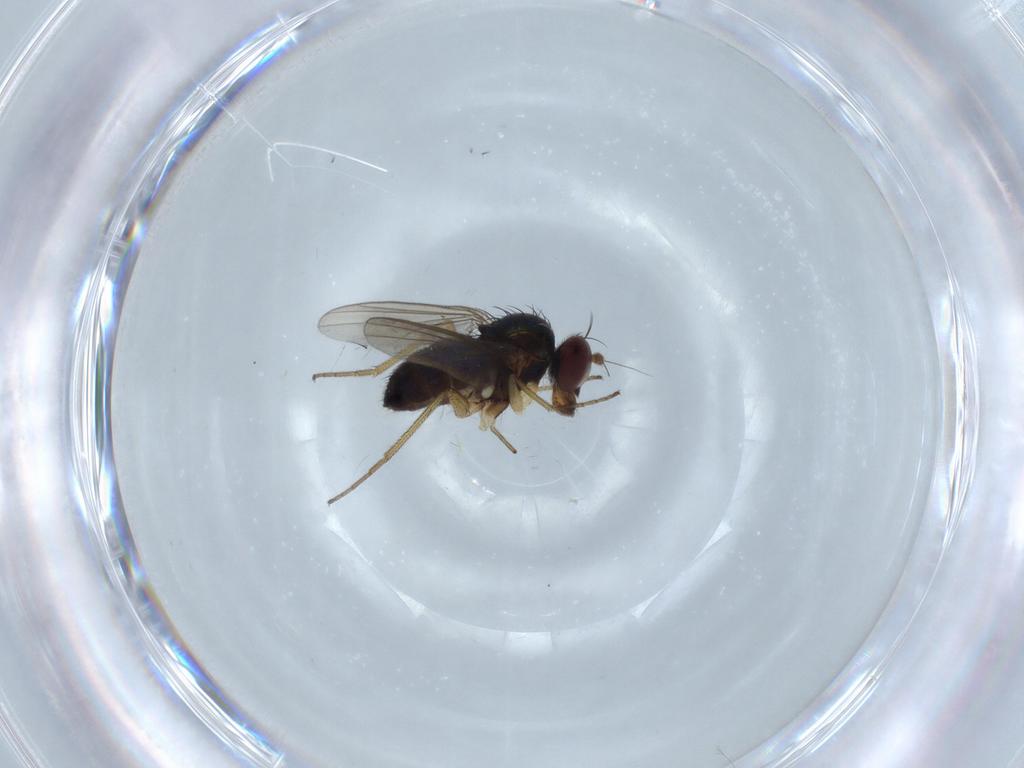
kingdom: Animalia
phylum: Arthropoda
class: Insecta
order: Diptera
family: Dolichopodidae
